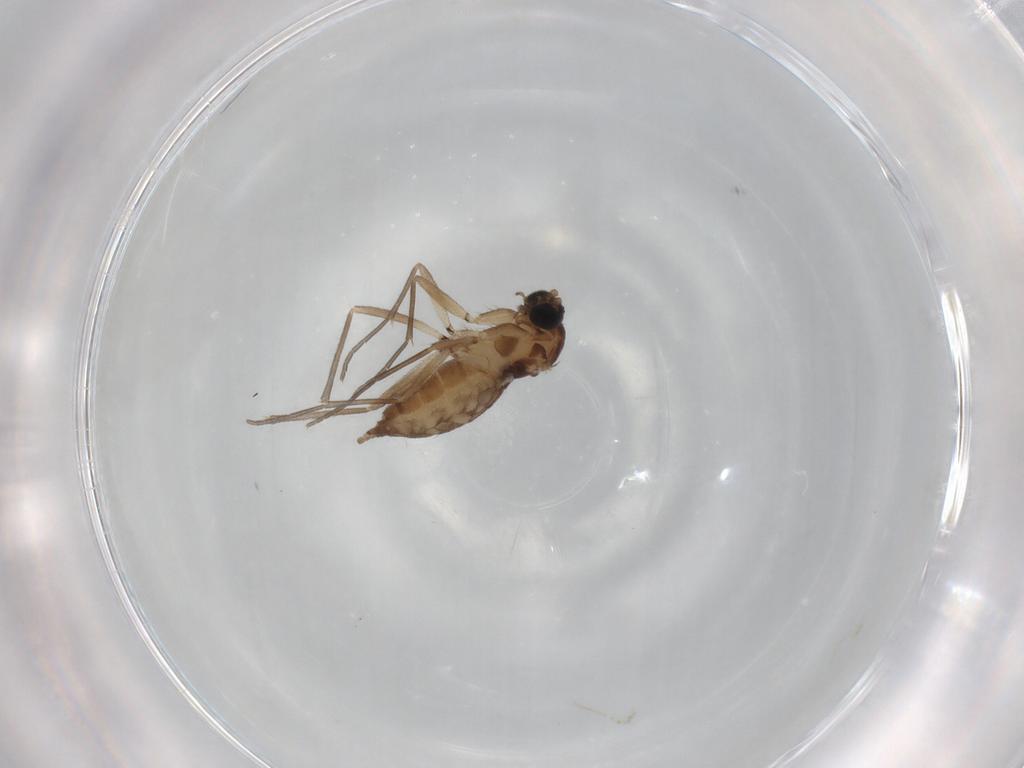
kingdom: Animalia
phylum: Arthropoda
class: Insecta
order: Diptera
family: Sciaridae
